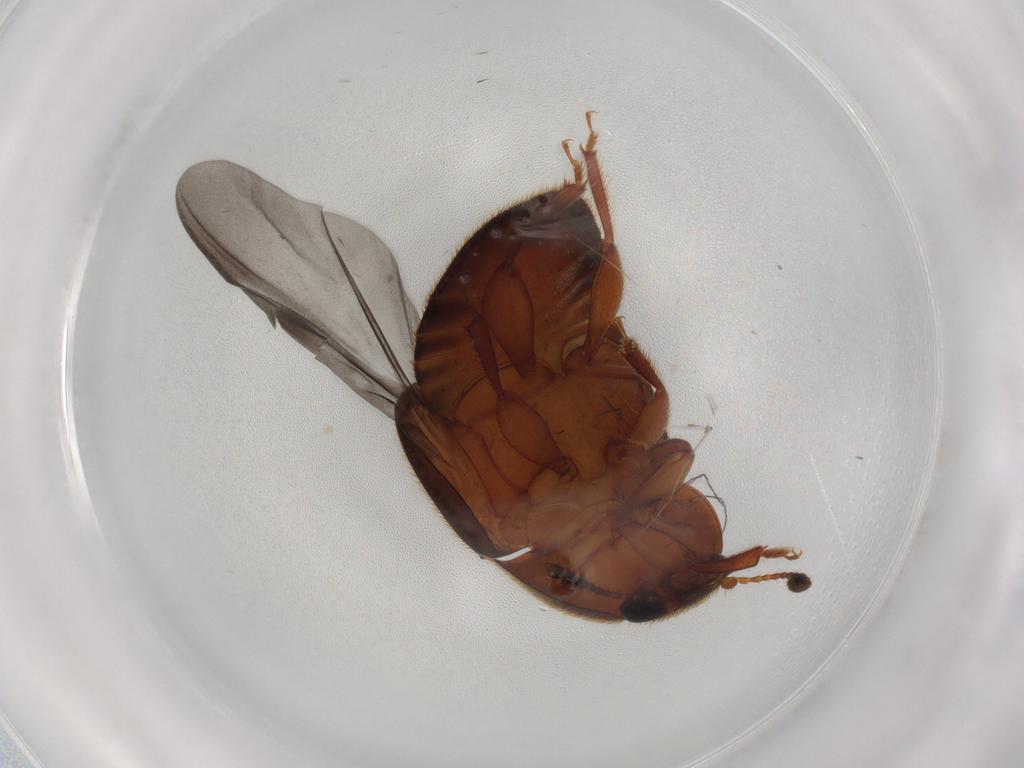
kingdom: Animalia
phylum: Arthropoda
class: Insecta
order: Coleoptera
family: Nitidulidae
